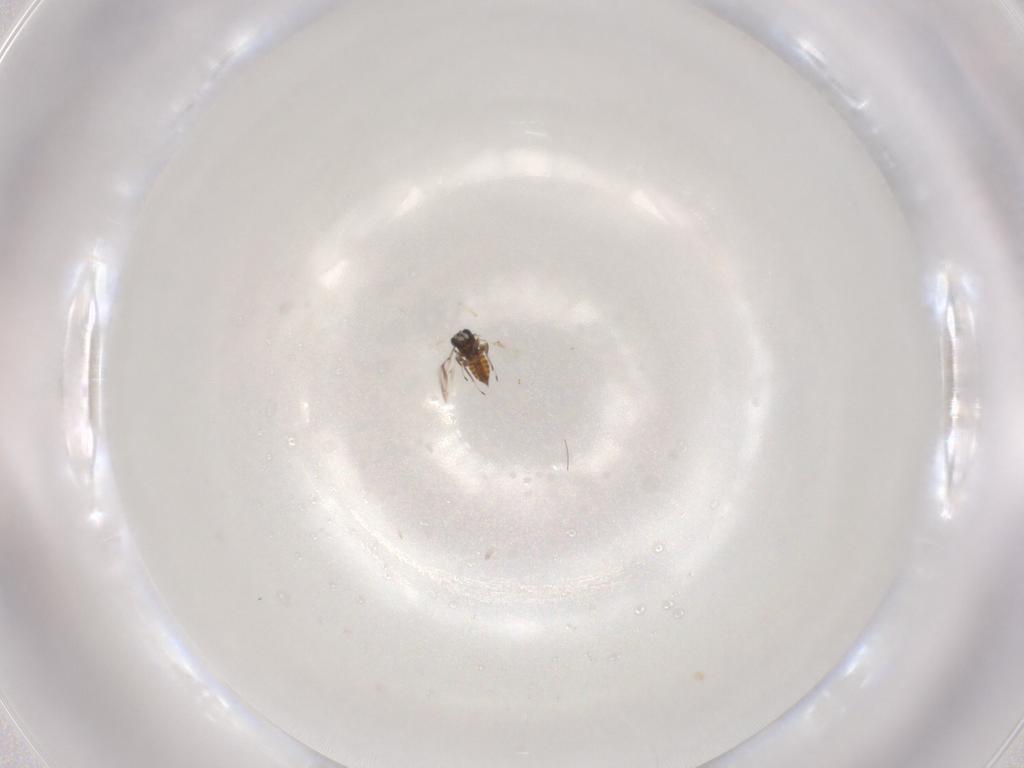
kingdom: Animalia
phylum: Arthropoda
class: Insecta
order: Hymenoptera
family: Trichogrammatidae
